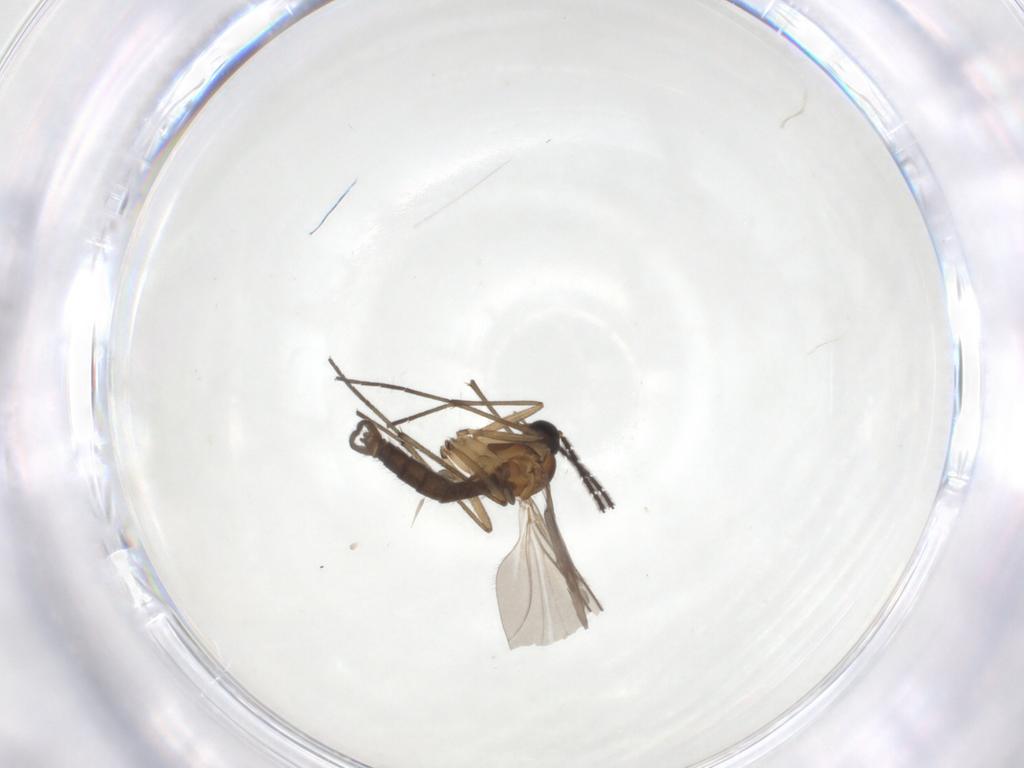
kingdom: Animalia
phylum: Arthropoda
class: Insecta
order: Diptera
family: Sciaridae
